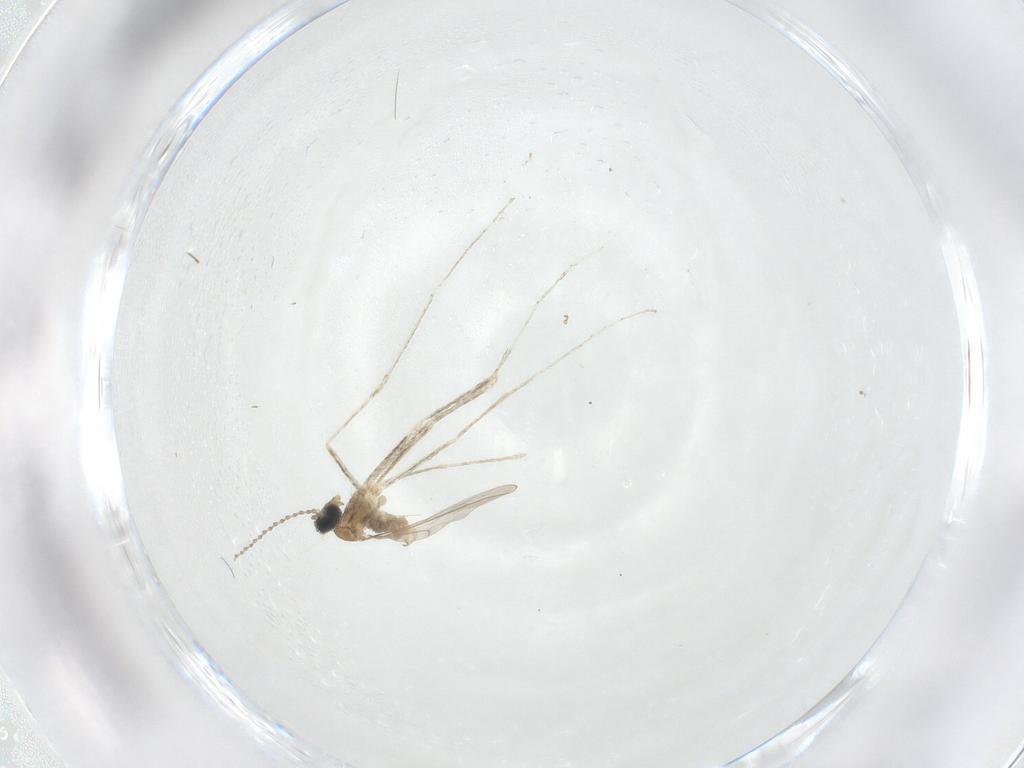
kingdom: Animalia
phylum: Arthropoda
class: Insecta
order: Diptera
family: Cecidomyiidae
